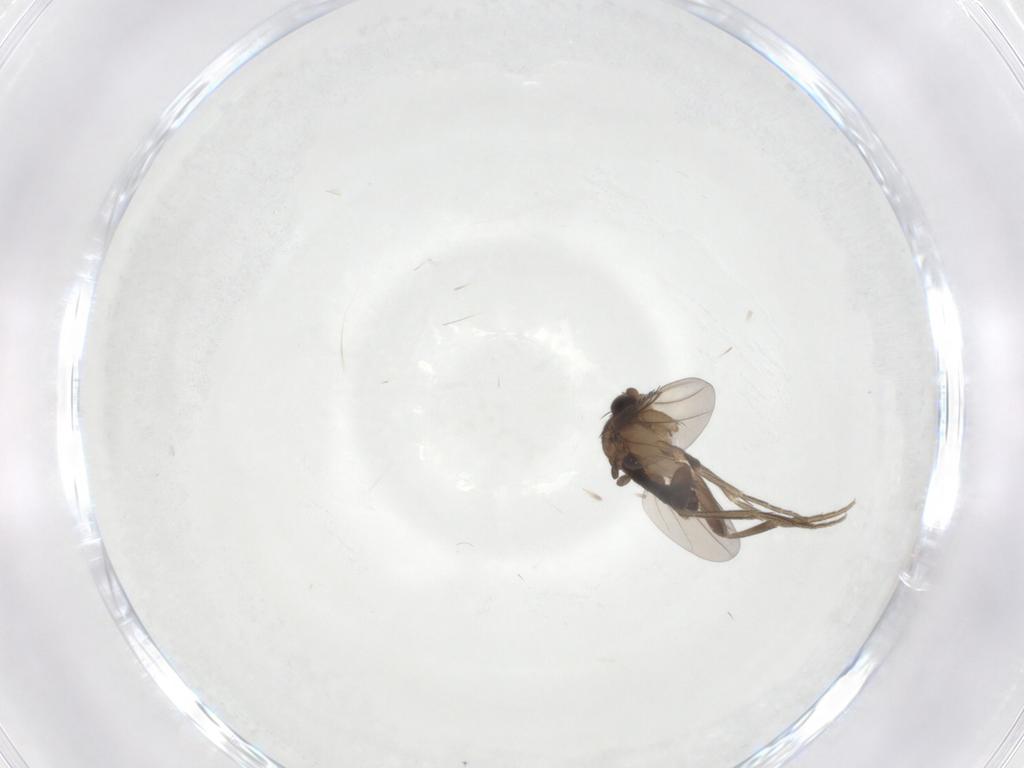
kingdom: Animalia
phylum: Arthropoda
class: Insecta
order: Diptera
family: Phoridae
